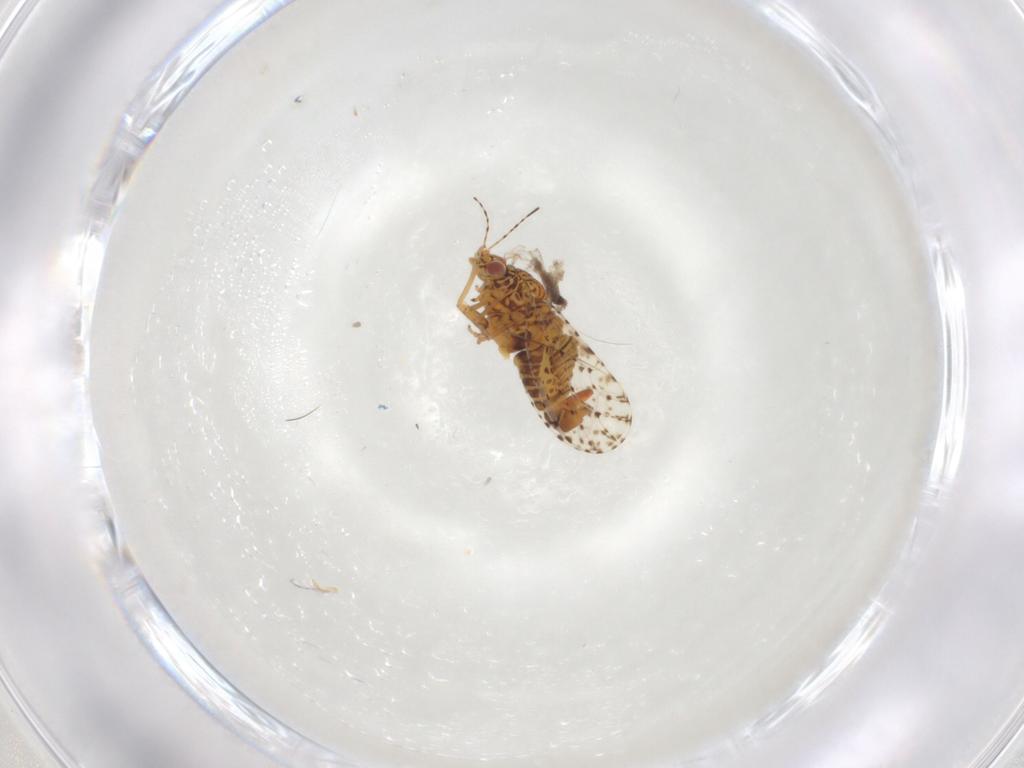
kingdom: Animalia
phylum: Arthropoda
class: Insecta
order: Diptera
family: Cecidomyiidae
